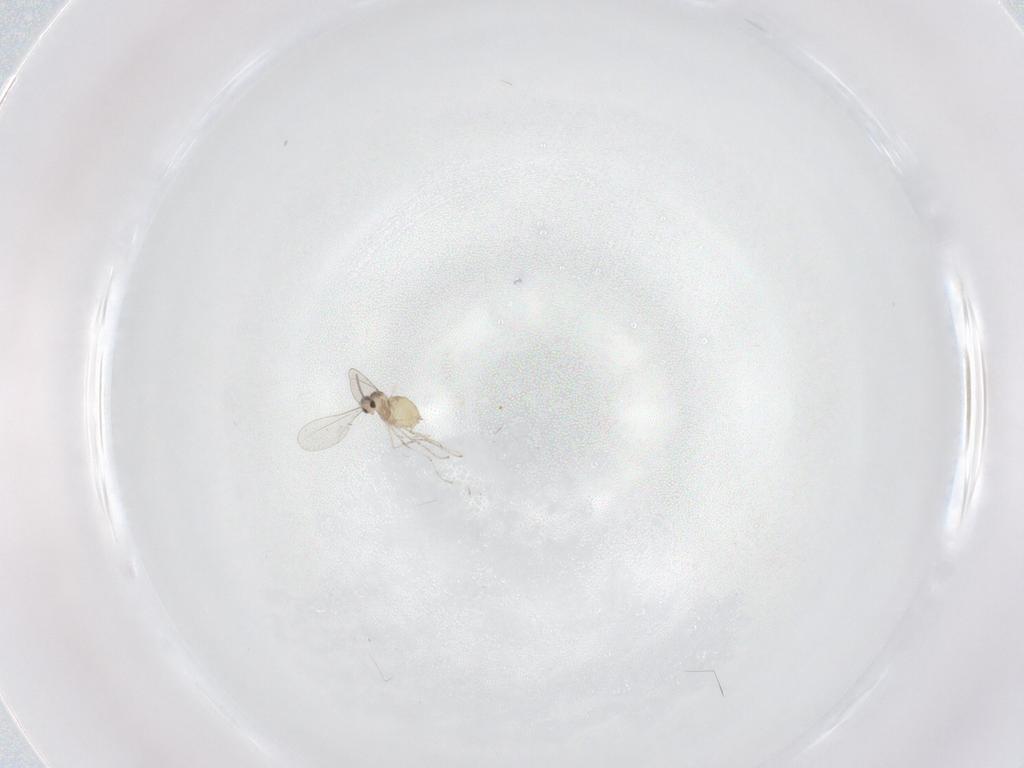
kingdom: Animalia
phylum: Arthropoda
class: Insecta
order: Diptera
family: Cecidomyiidae
